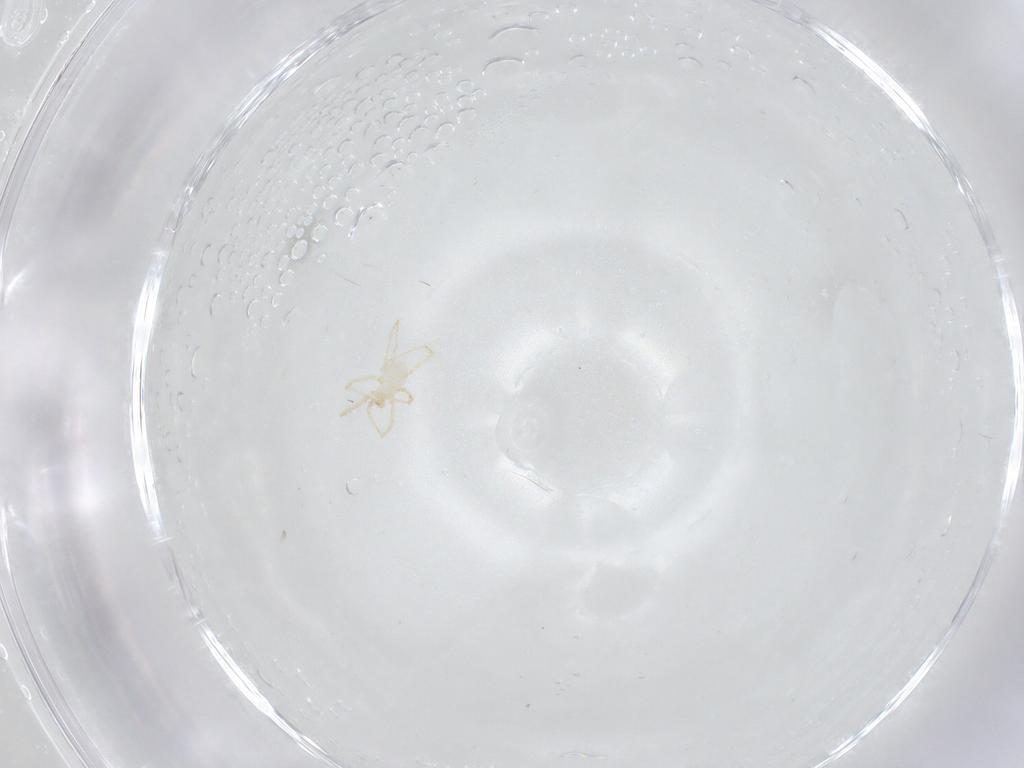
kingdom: Animalia
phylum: Arthropoda
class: Arachnida
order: Trombidiformes
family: Erythraeidae
